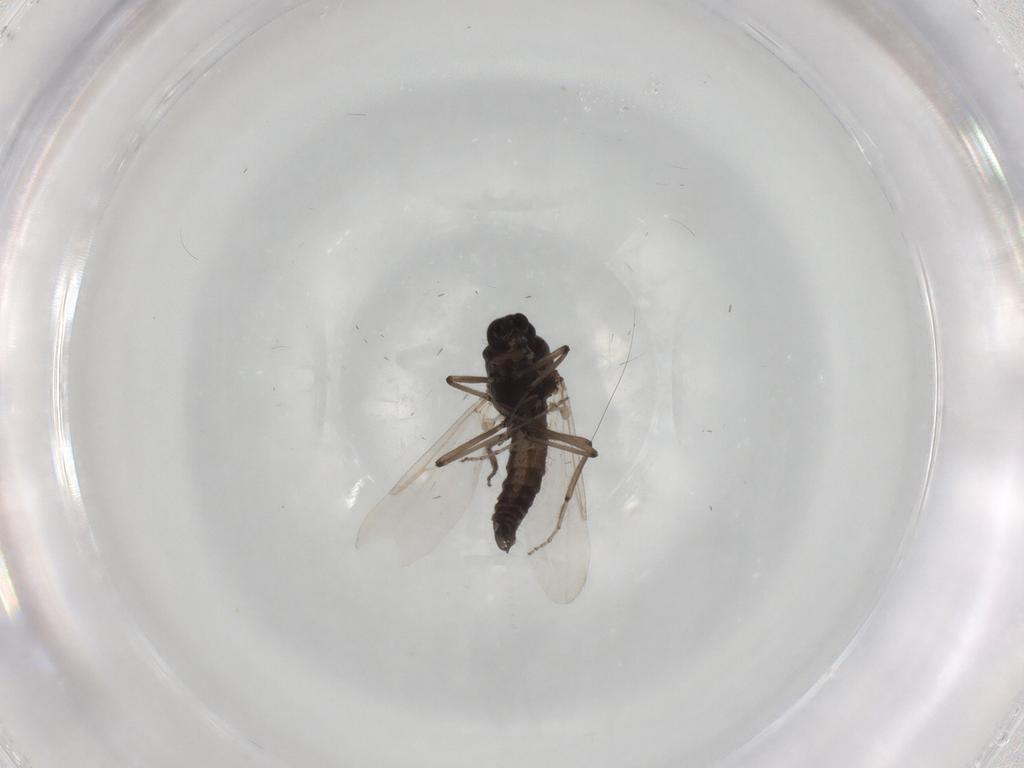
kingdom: Animalia
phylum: Arthropoda
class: Insecta
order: Diptera
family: Ceratopogonidae
